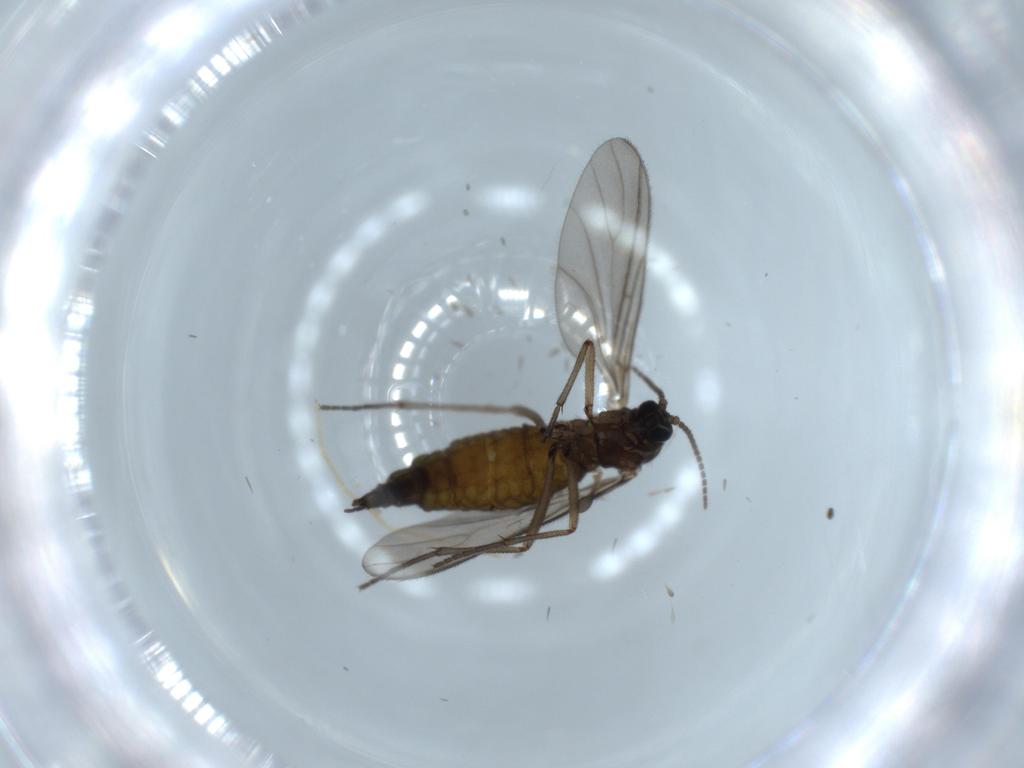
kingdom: Animalia
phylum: Arthropoda
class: Insecta
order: Diptera
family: Sciaridae
